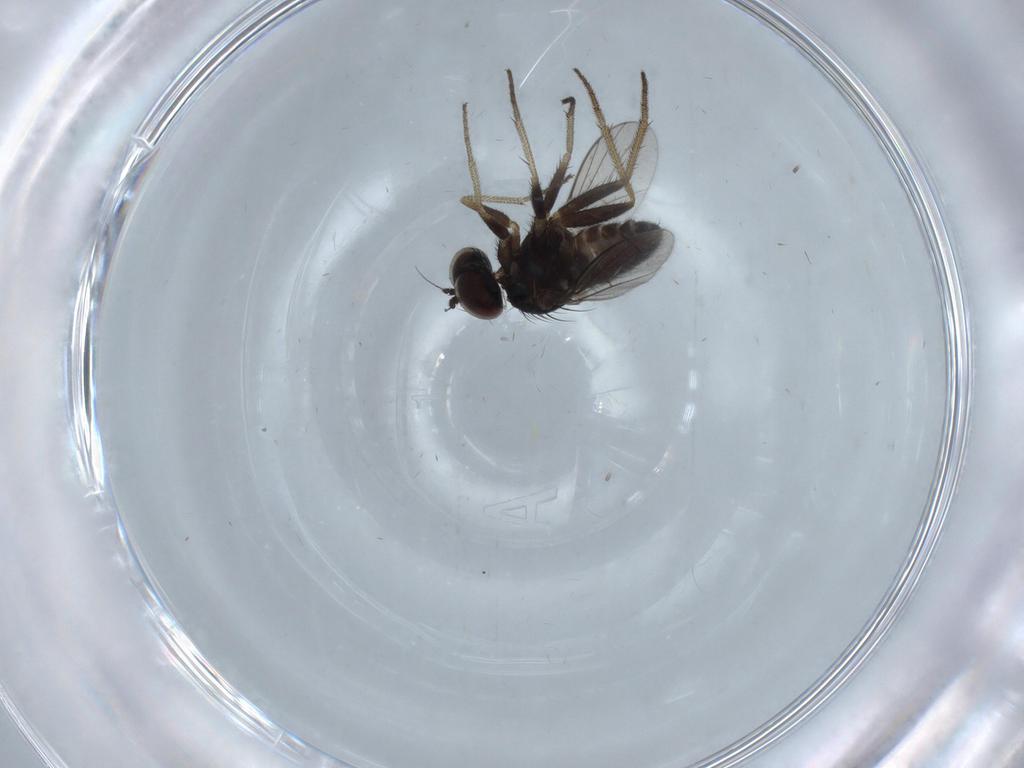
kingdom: Animalia
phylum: Arthropoda
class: Insecta
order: Diptera
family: Dolichopodidae
